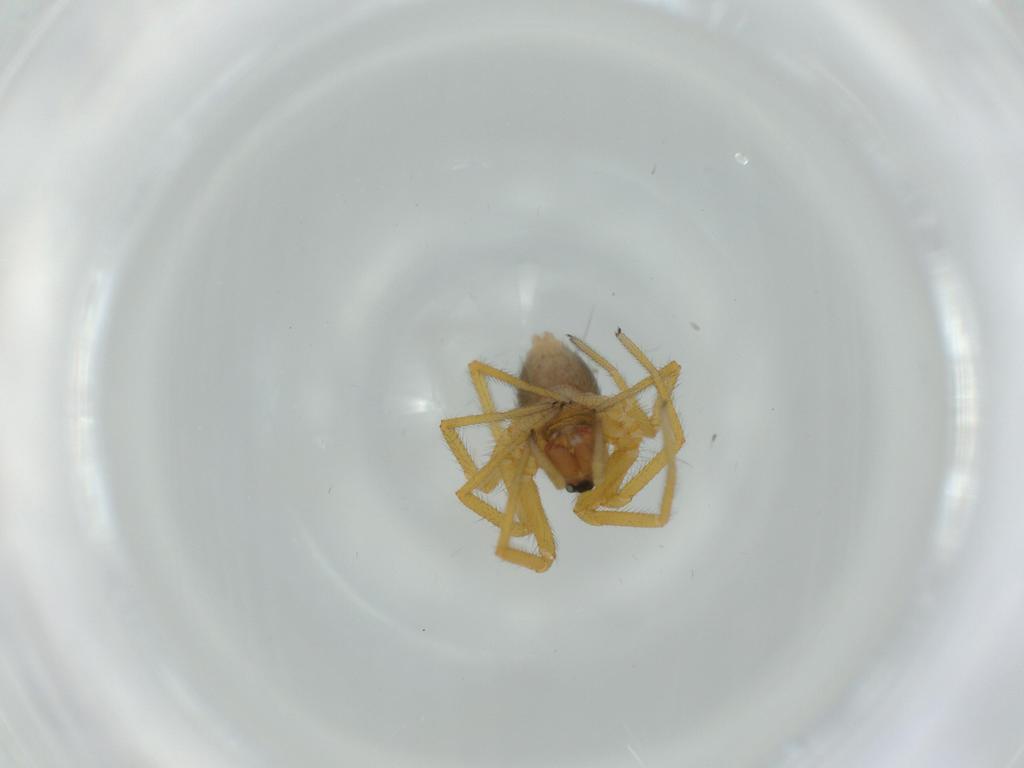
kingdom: Animalia
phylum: Arthropoda
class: Arachnida
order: Araneae
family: Linyphiidae
